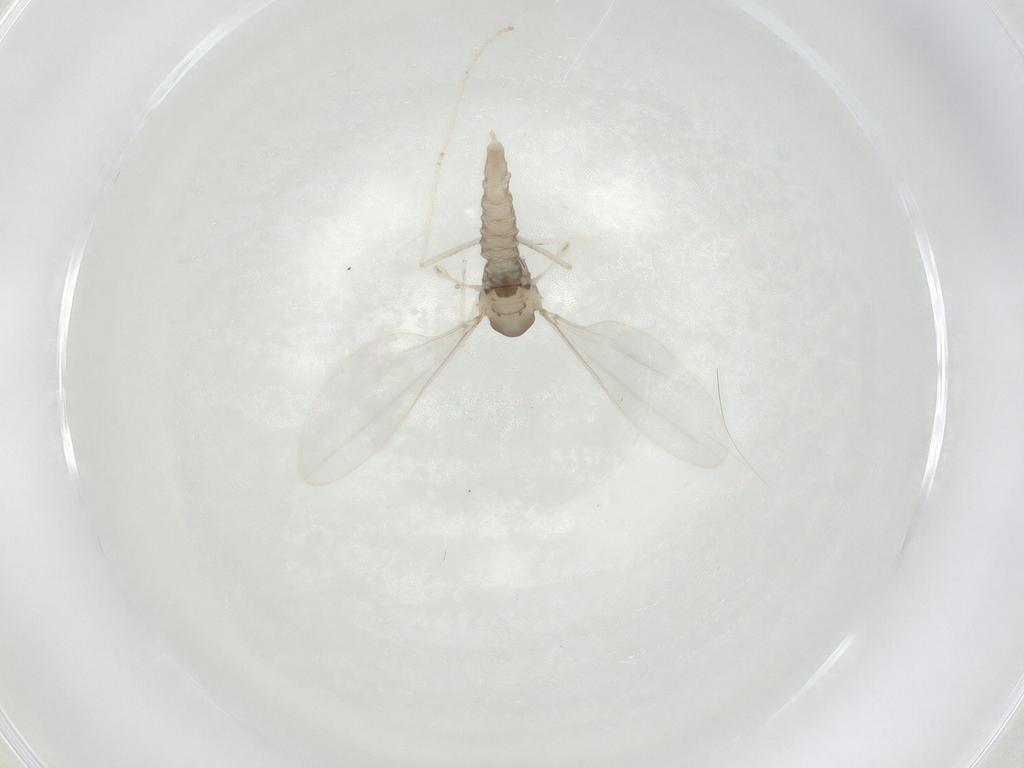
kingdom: Animalia
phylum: Arthropoda
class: Insecta
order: Diptera
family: Cecidomyiidae
